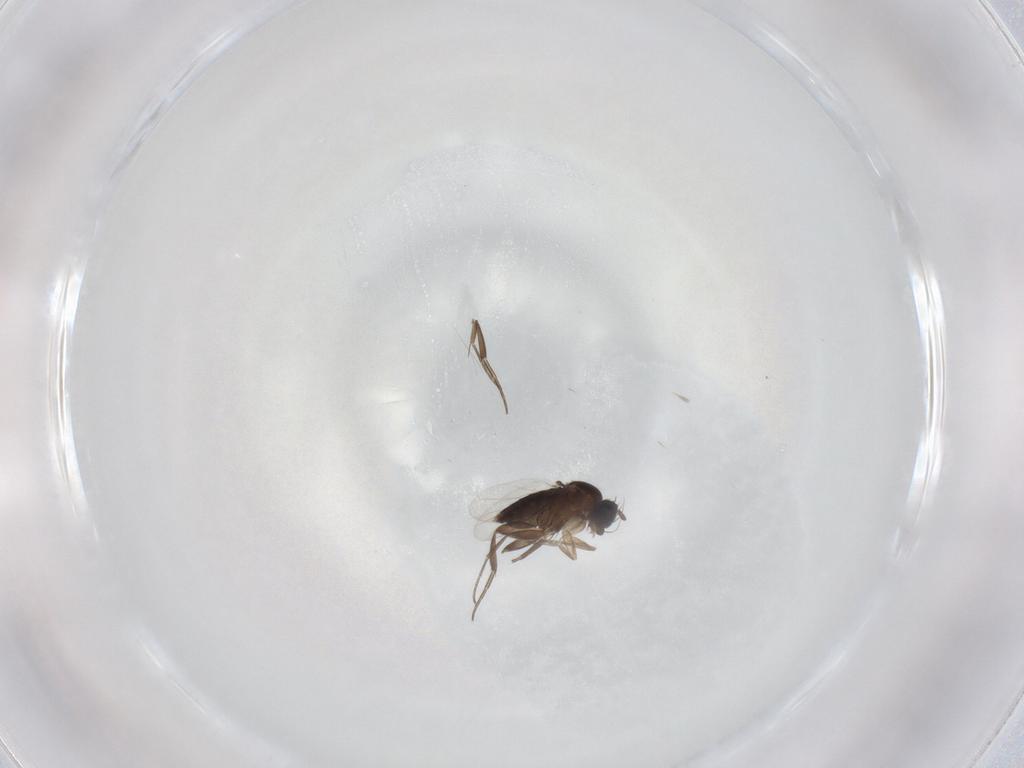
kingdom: Animalia
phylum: Arthropoda
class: Insecta
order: Diptera
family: Phoridae
